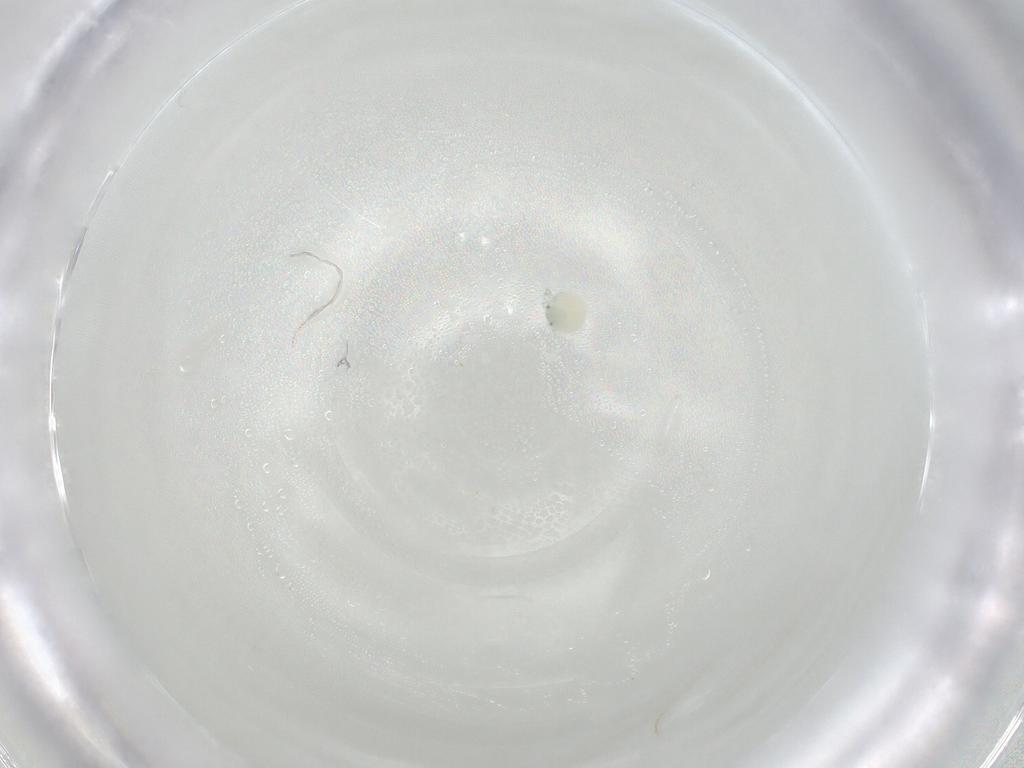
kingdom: Animalia
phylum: Arthropoda
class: Arachnida
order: Trombidiformes
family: Arrenuridae
